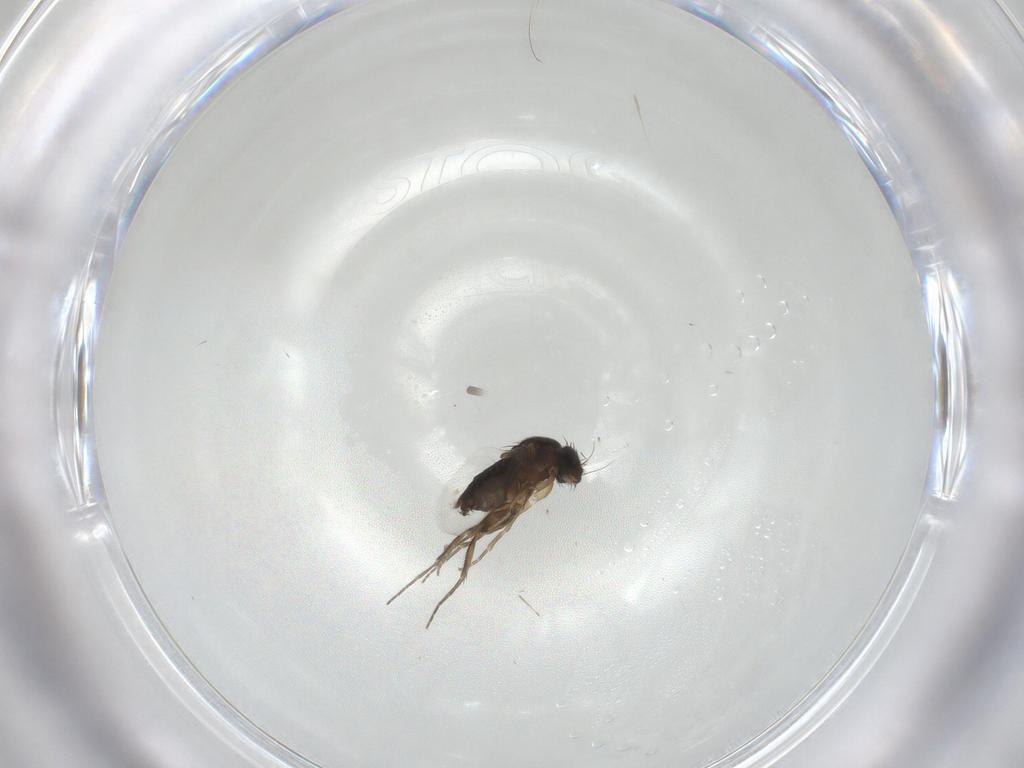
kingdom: Animalia
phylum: Arthropoda
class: Insecta
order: Diptera
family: Phoridae
